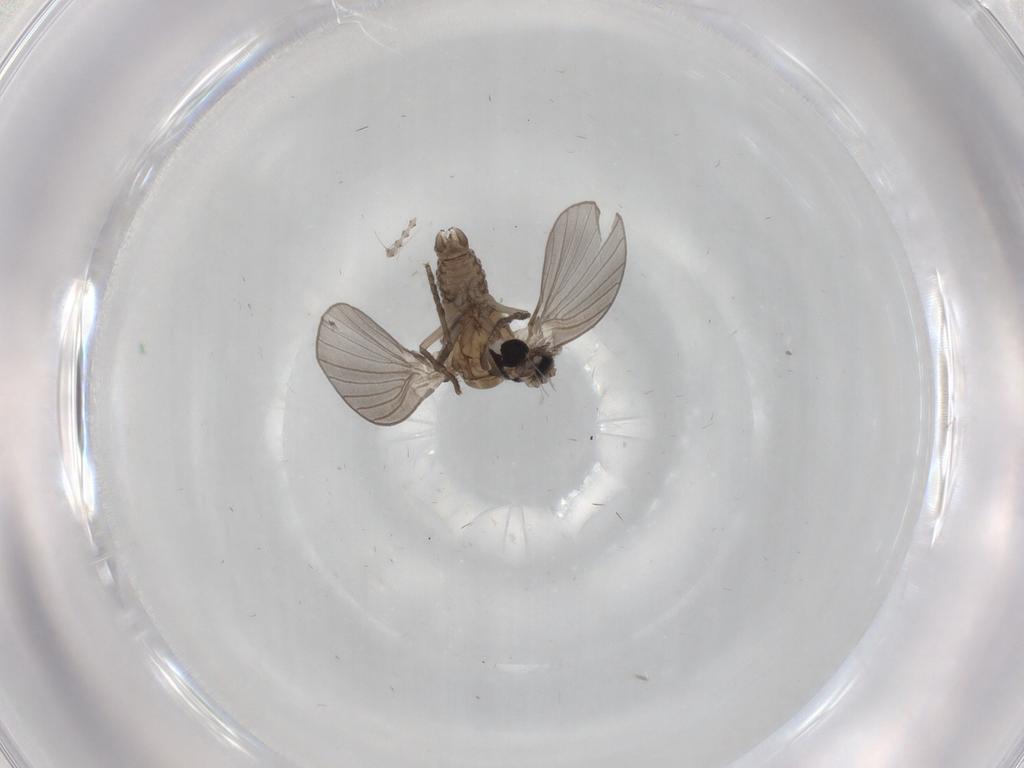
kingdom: Animalia
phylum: Arthropoda
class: Insecta
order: Diptera
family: Psychodidae
